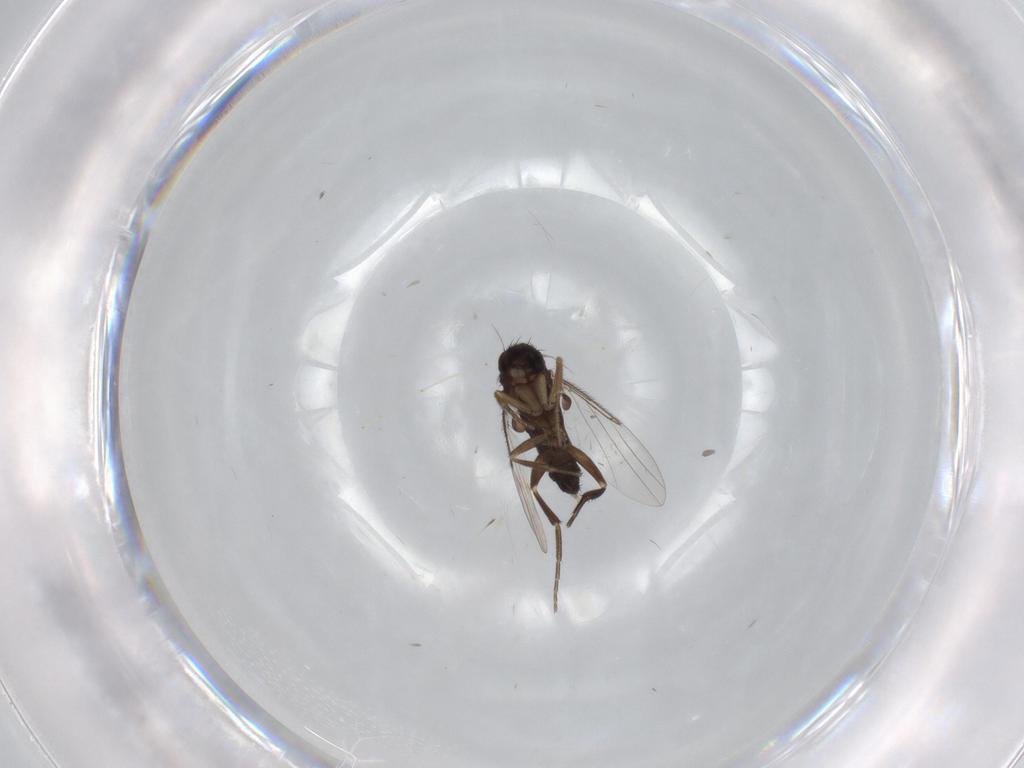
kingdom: Animalia
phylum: Arthropoda
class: Insecta
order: Diptera
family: Phoridae
